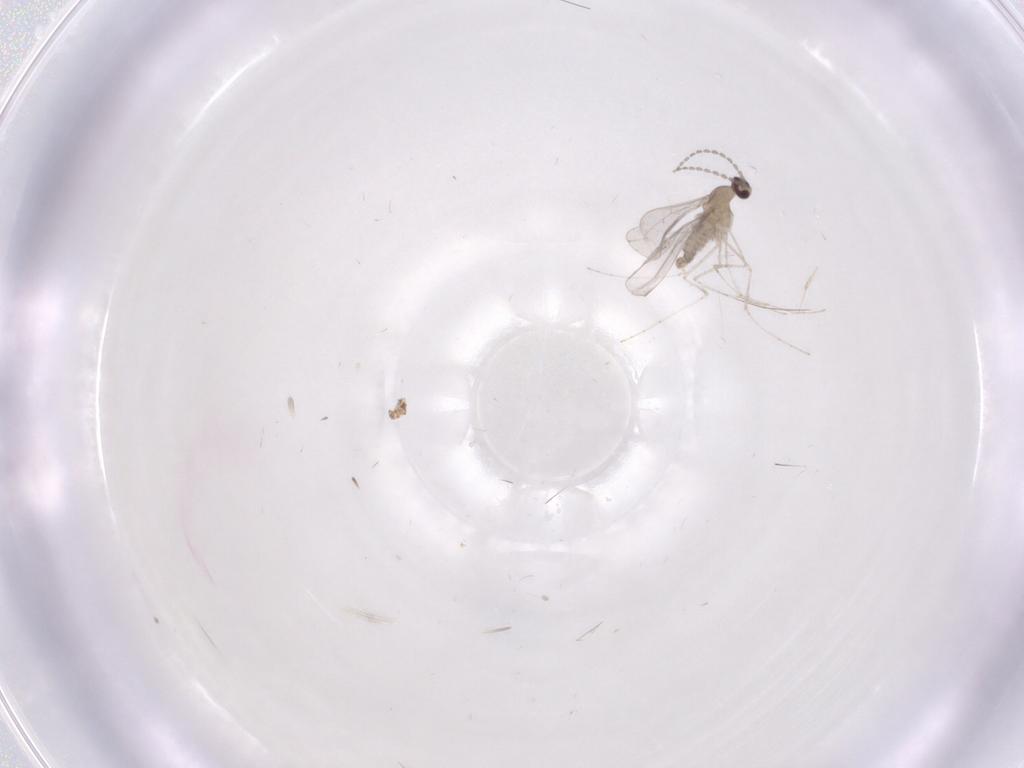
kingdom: Animalia
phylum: Arthropoda
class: Insecta
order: Diptera
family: Cecidomyiidae
